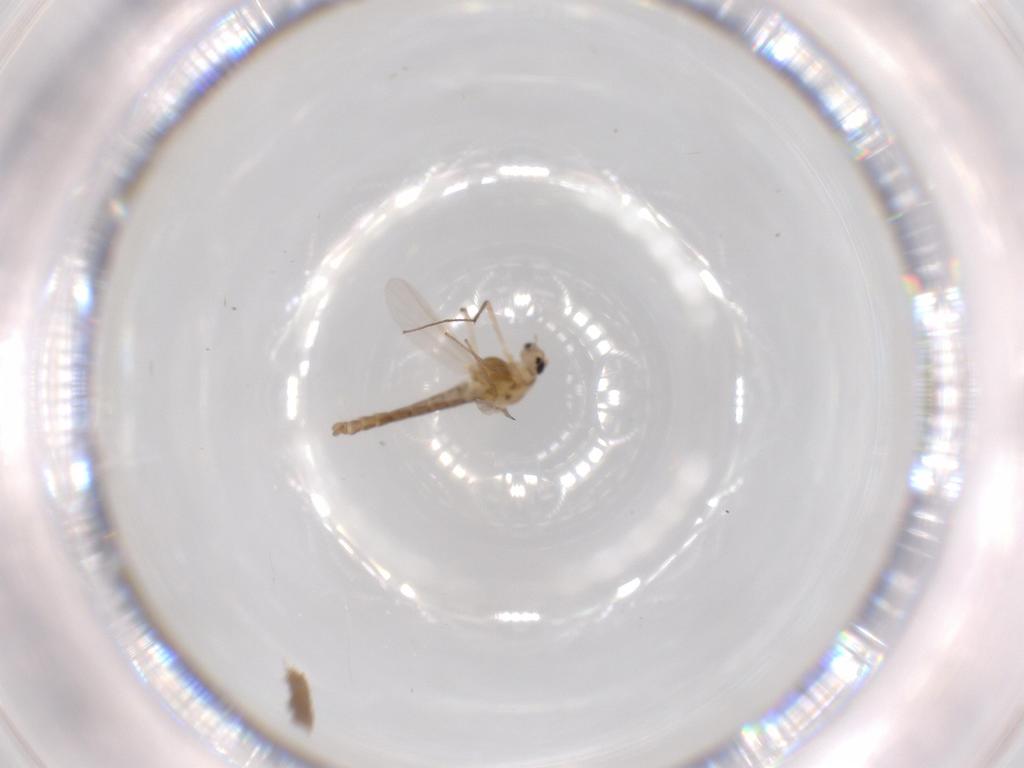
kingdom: Animalia
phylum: Arthropoda
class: Insecta
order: Diptera
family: Chironomidae
